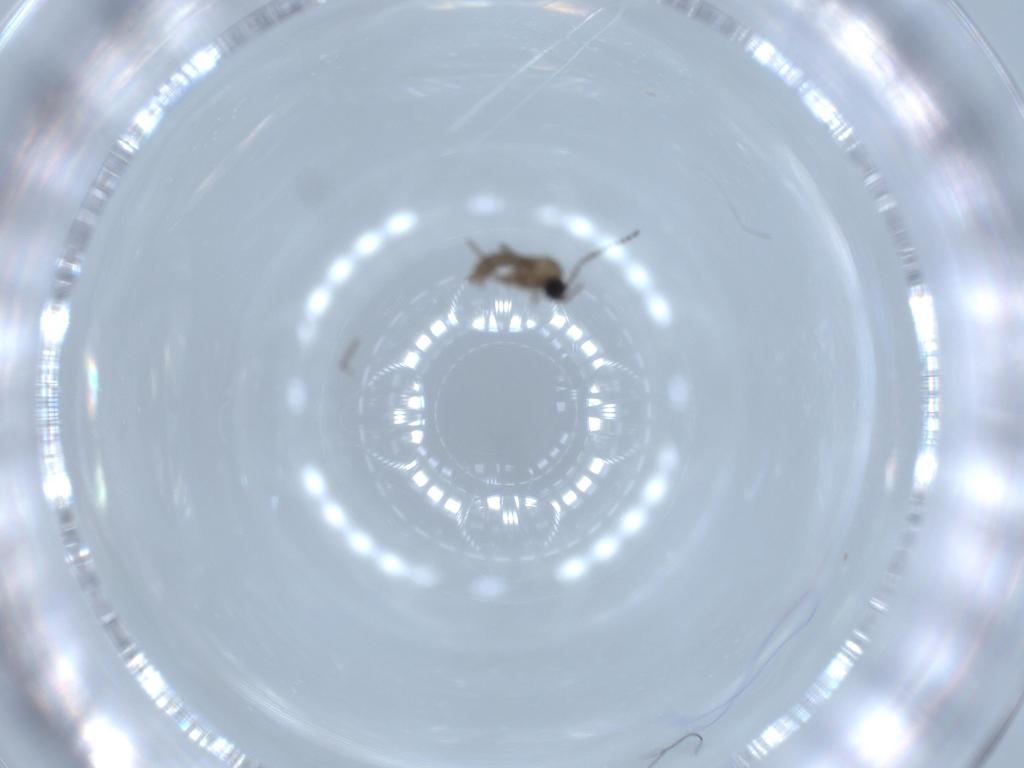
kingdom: Animalia
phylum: Arthropoda
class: Insecta
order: Diptera
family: Sciaridae
